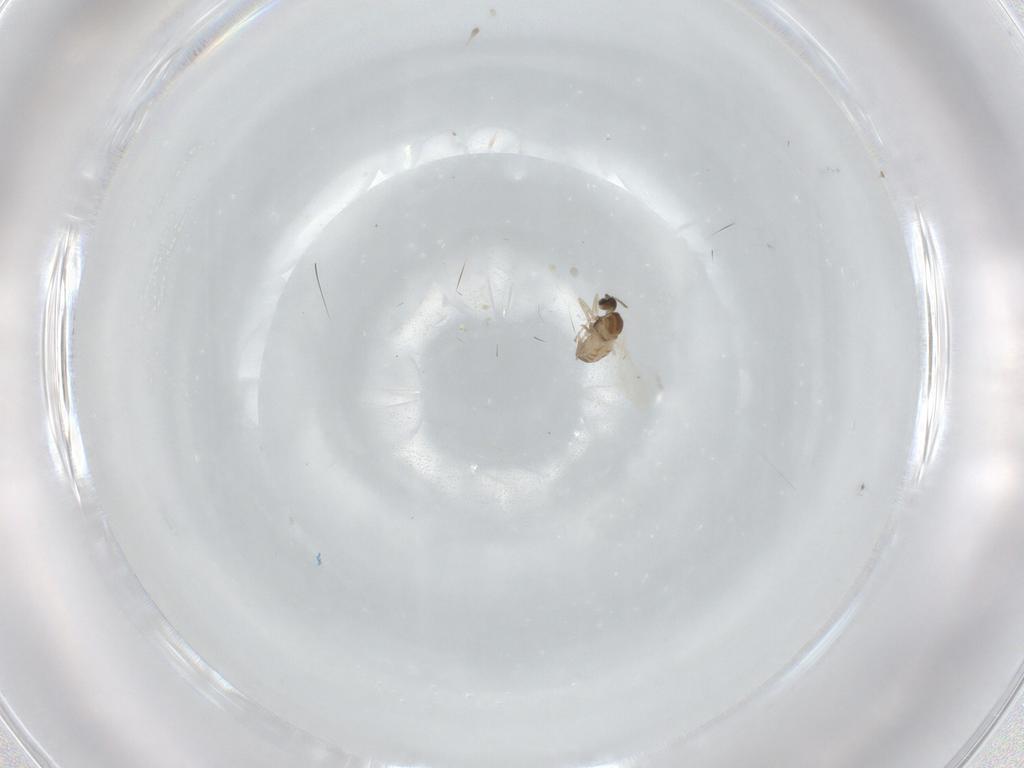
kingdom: Animalia
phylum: Arthropoda
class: Insecta
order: Diptera
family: Cecidomyiidae
